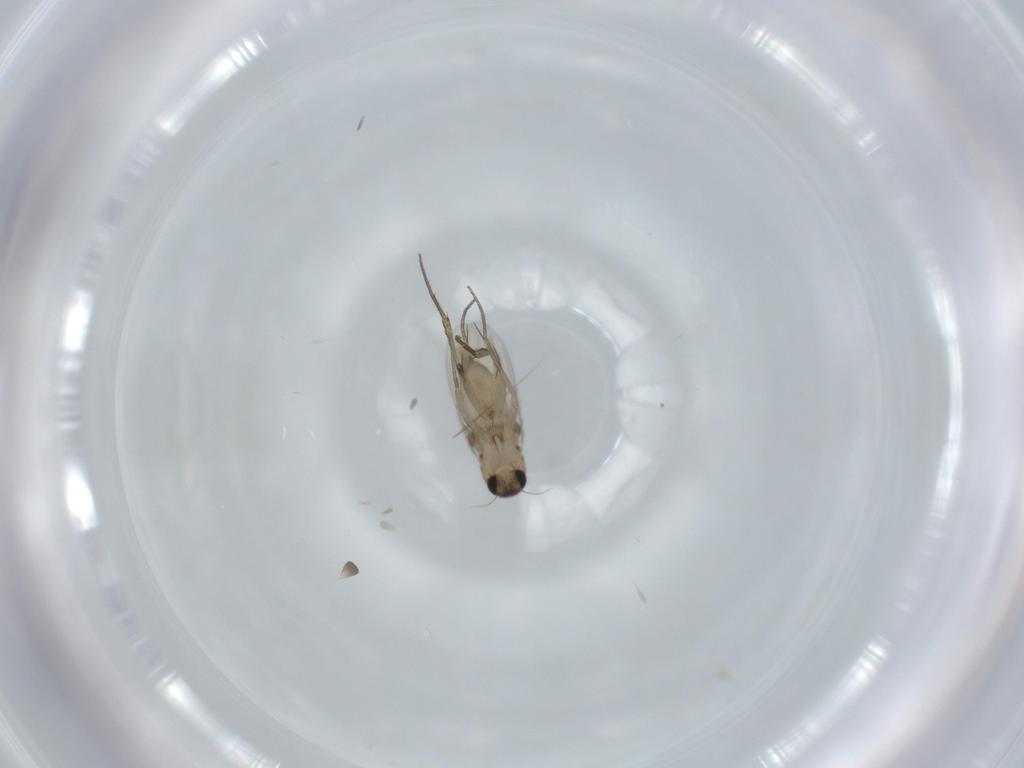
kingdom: Animalia
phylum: Arthropoda
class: Insecta
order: Diptera
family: Phoridae
